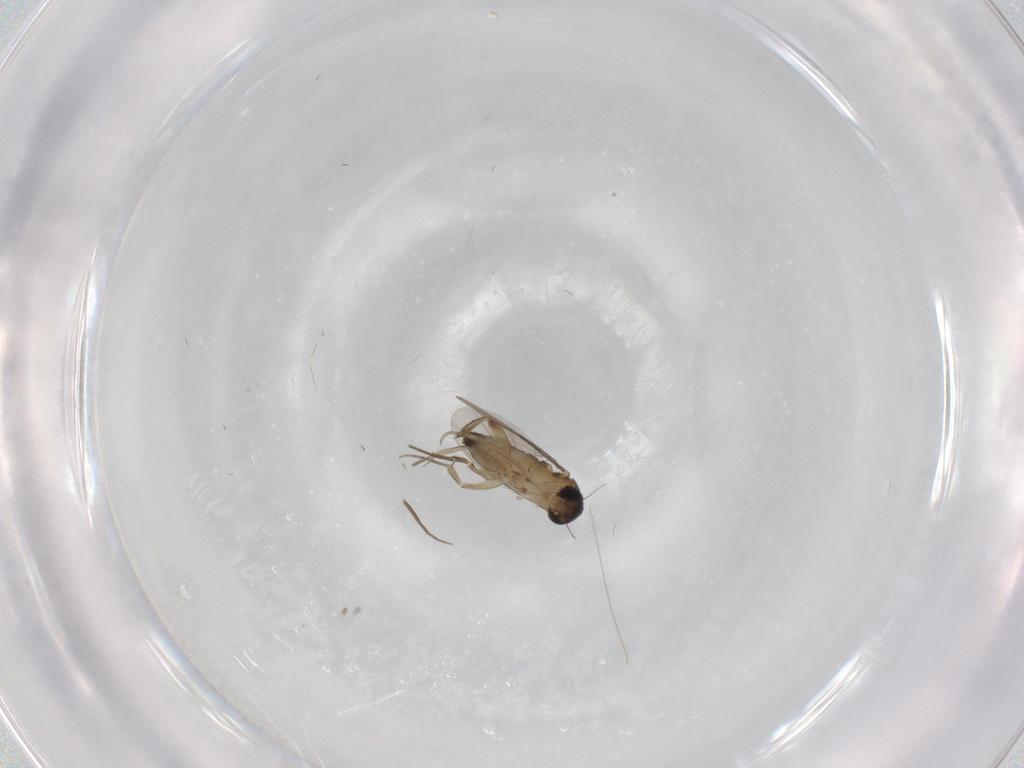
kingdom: Animalia
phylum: Arthropoda
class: Insecta
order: Diptera
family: Phoridae
